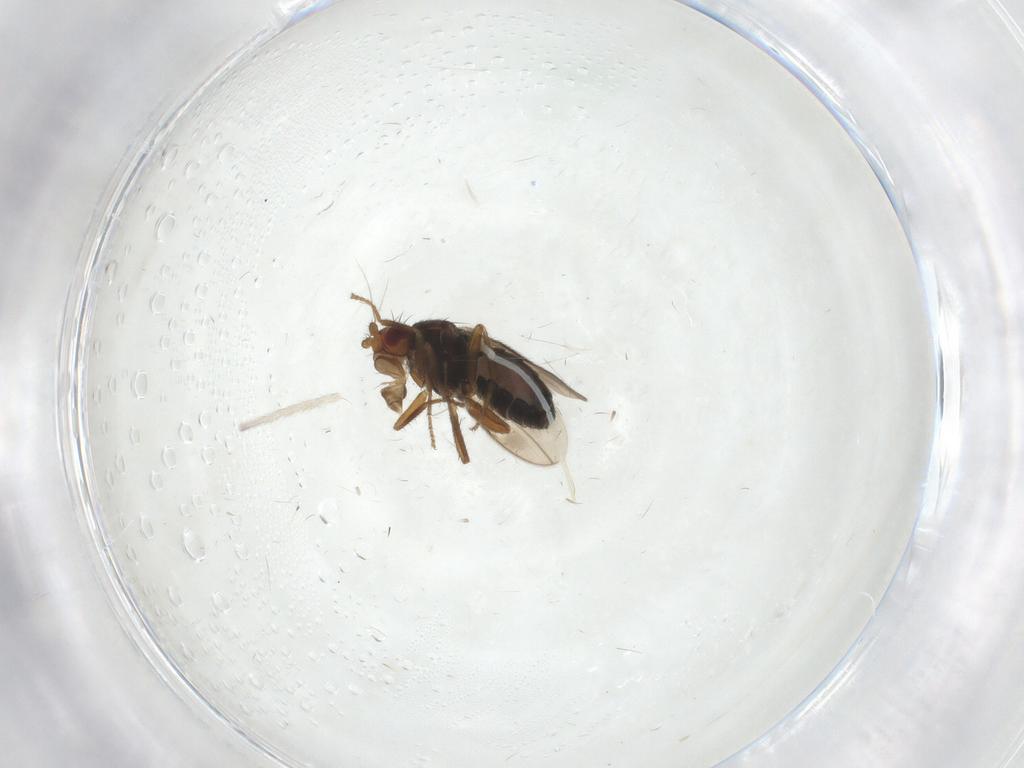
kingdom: Animalia
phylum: Arthropoda
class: Insecta
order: Diptera
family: Sphaeroceridae
